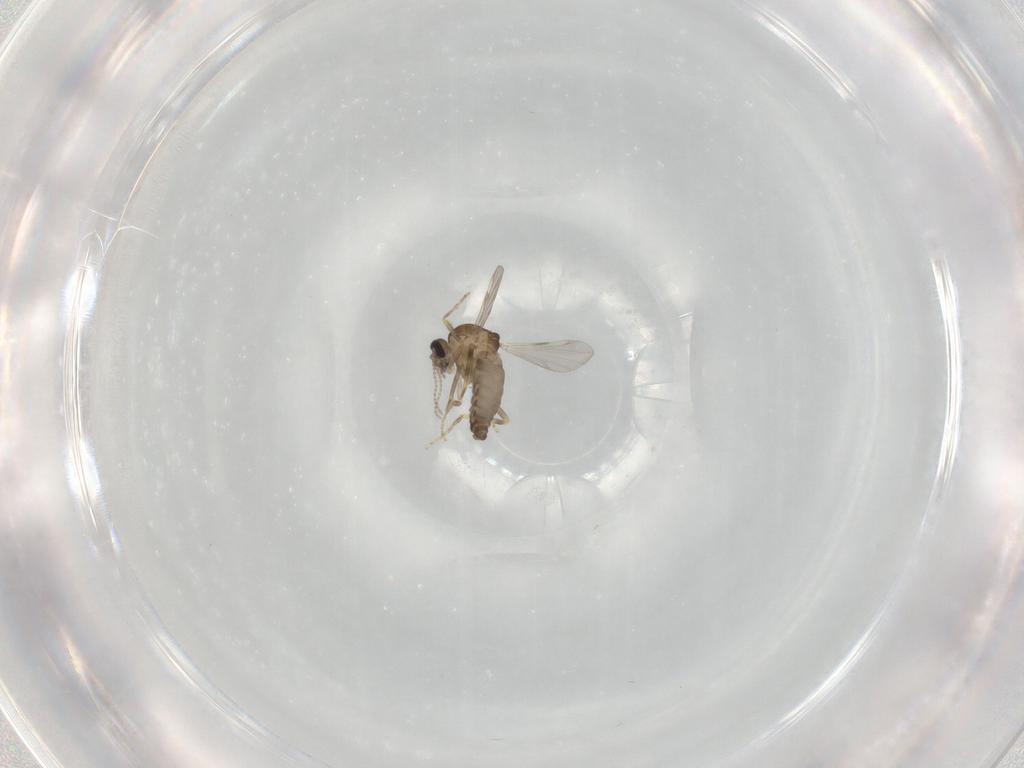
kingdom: Animalia
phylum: Arthropoda
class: Insecta
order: Diptera
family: Ceratopogonidae
